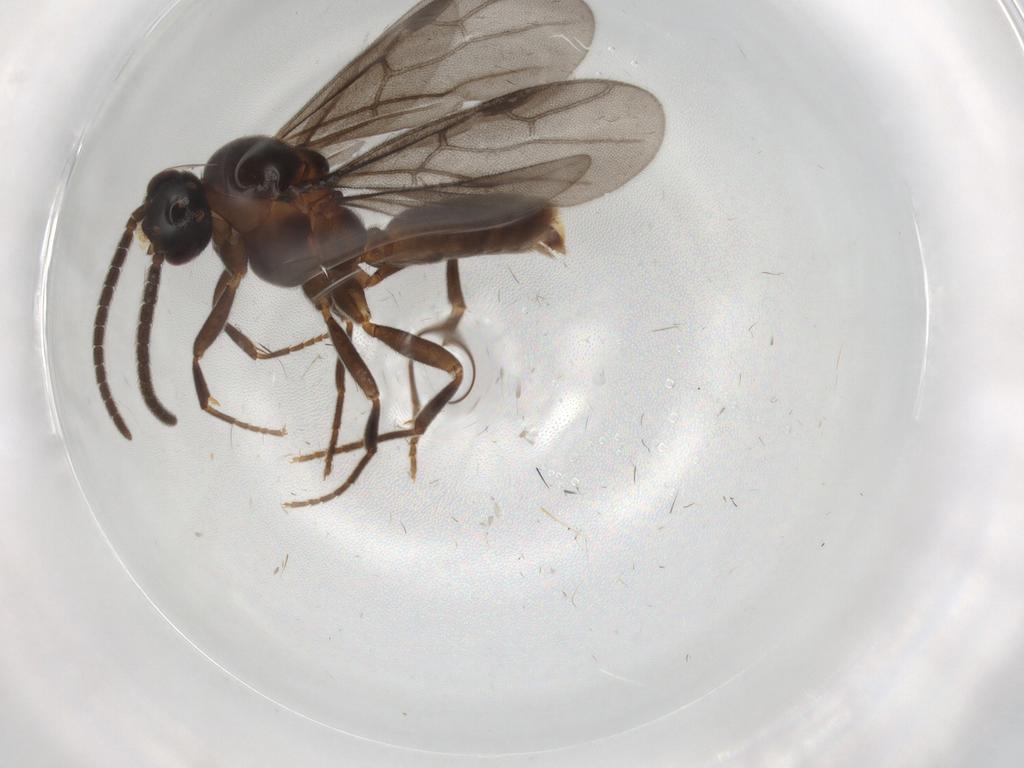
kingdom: Animalia
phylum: Arthropoda
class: Insecta
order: Hymenoptera
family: Formicidae
